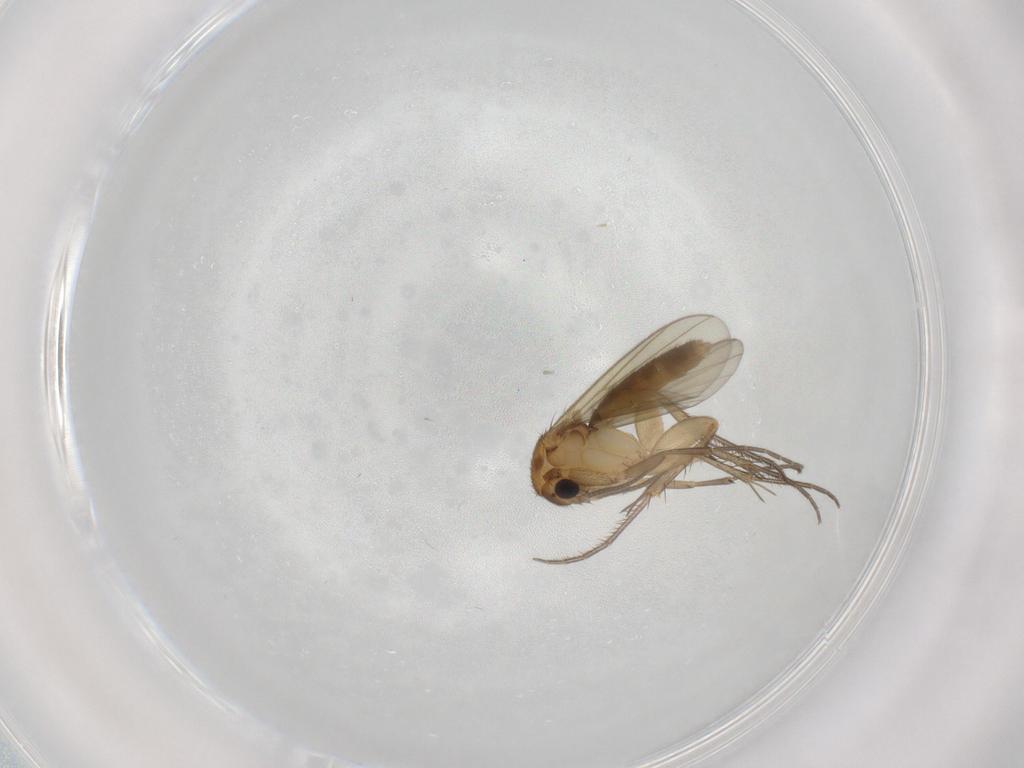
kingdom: Animalia
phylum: Arthropoda
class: Insecta
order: Diptera
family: Mycetophilidae
